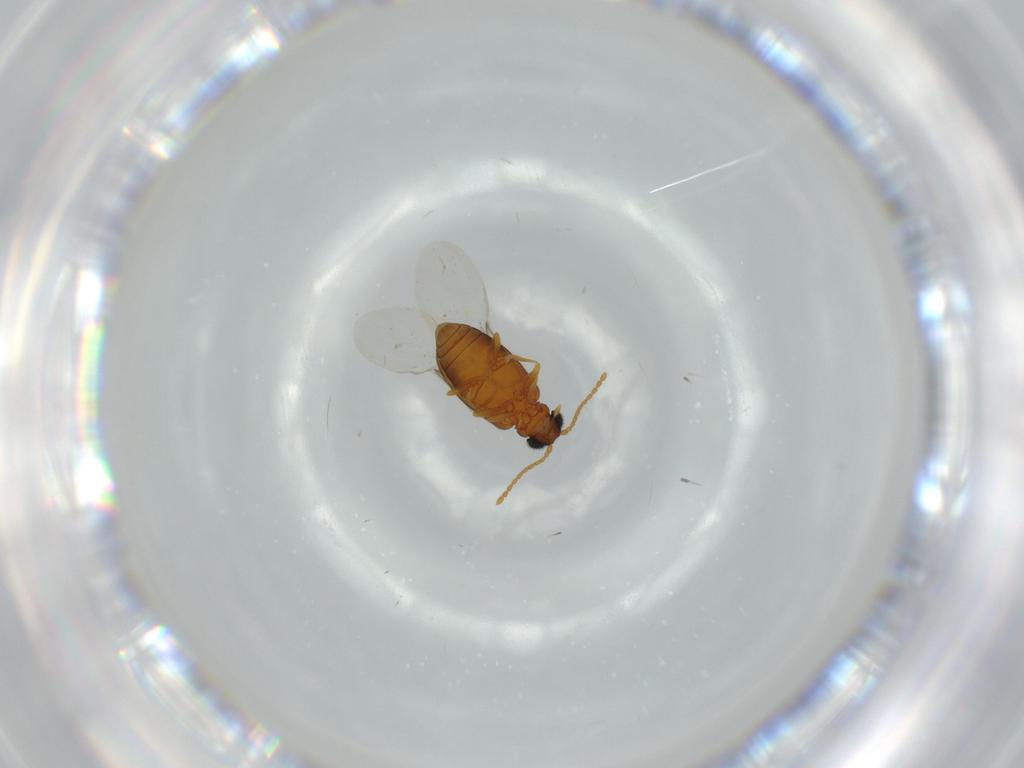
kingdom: Animalia
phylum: Arthropoda
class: Insecta
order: Coleoptera
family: Aderidae
